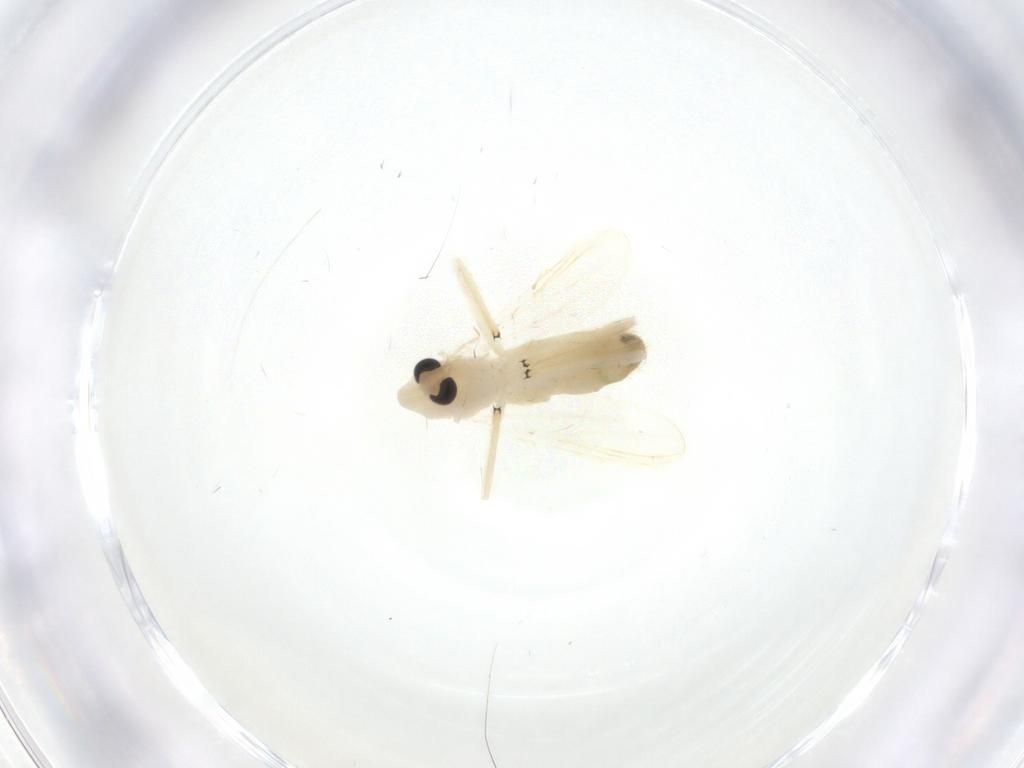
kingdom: Animalia
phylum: Arthropoda
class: Insecta
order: Diptera
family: Chironomidae
